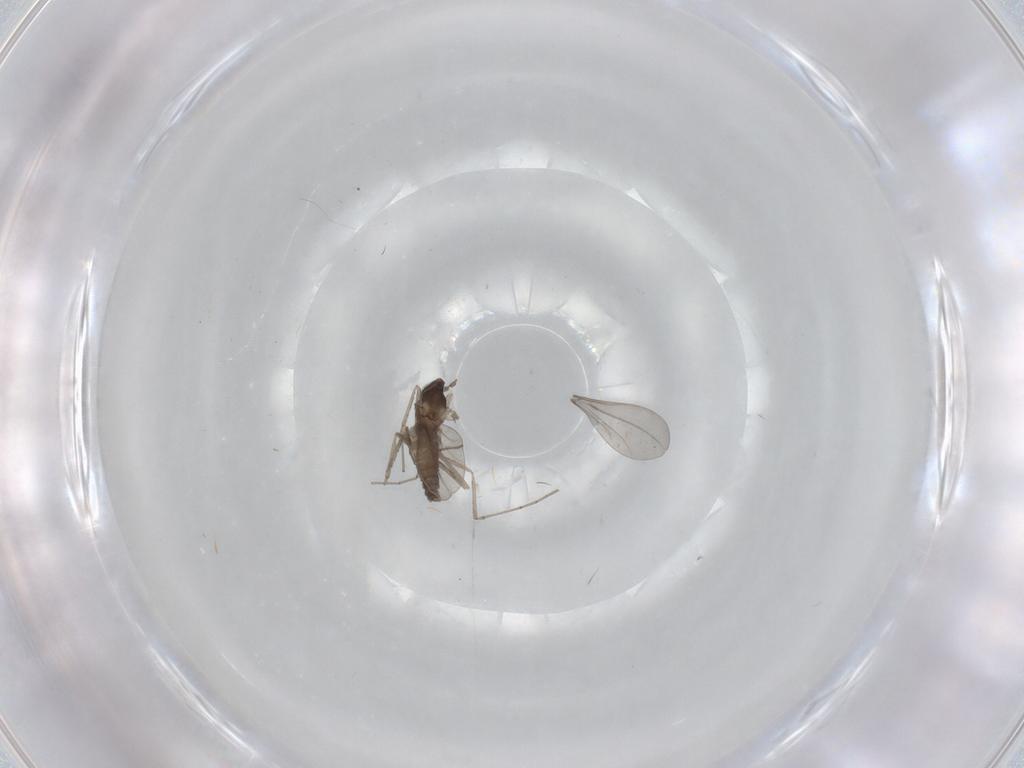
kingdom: Animalia
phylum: Arthropoda
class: Insecta
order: Diptera
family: Cecidomyiidae
